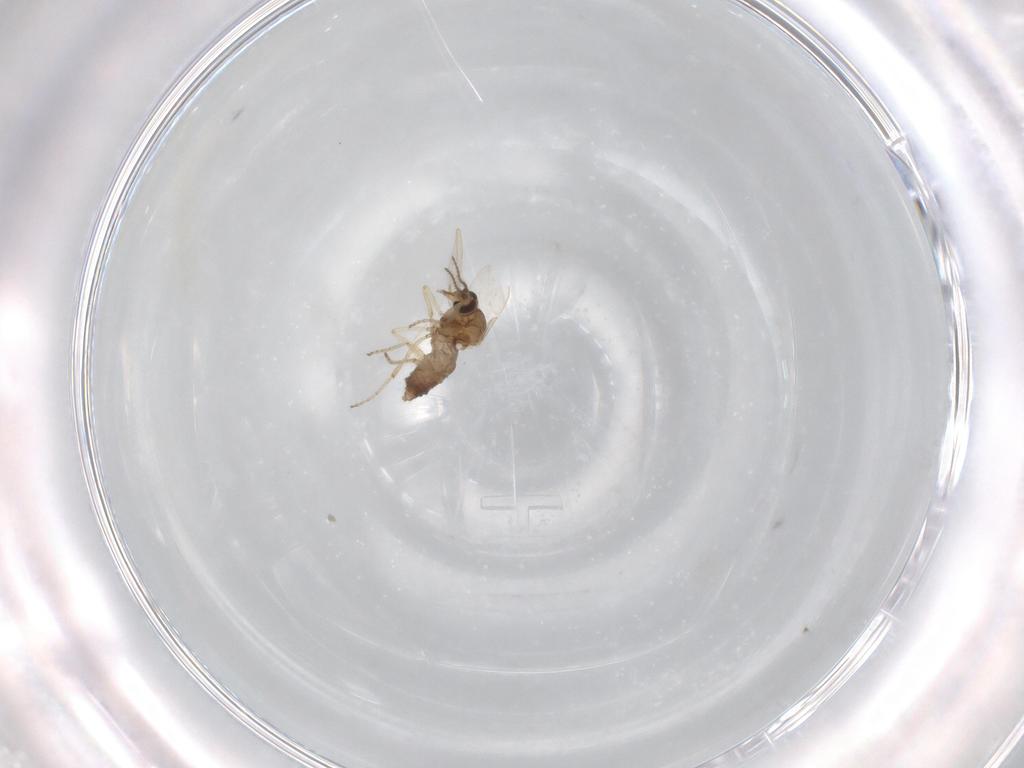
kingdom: Animalia
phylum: Arthropoda
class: Insecta
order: Diptera
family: Ceratopogonidae
